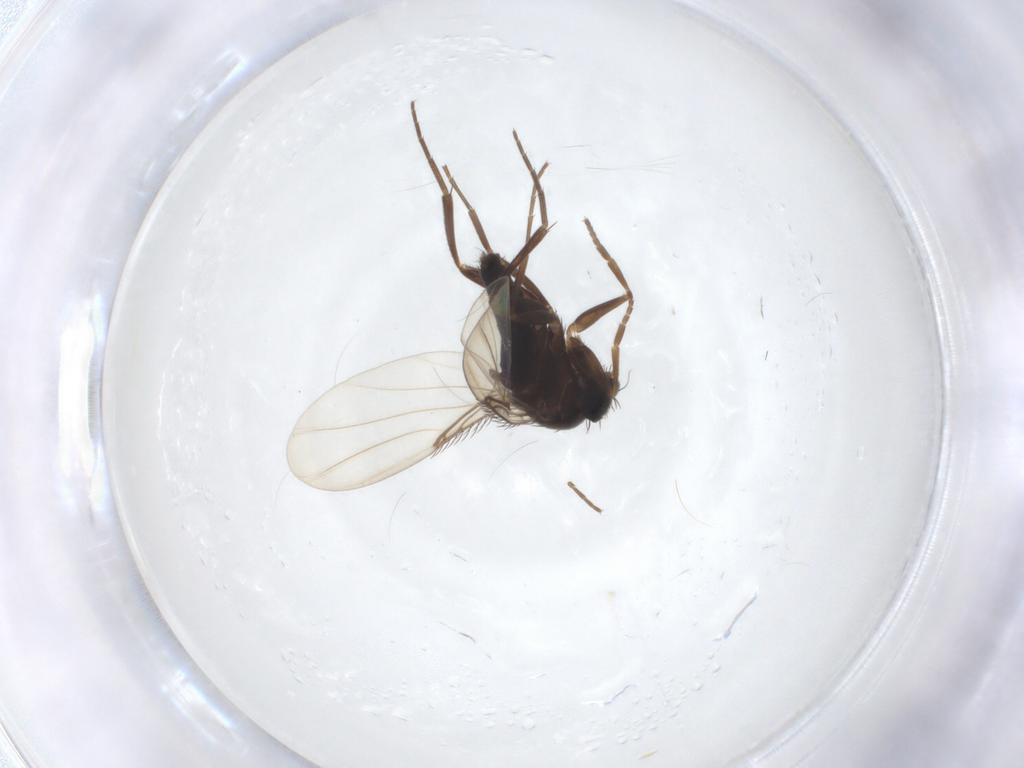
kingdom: Animalia
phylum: Arthropoda
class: Insecta
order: Diptera
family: Phoridae
